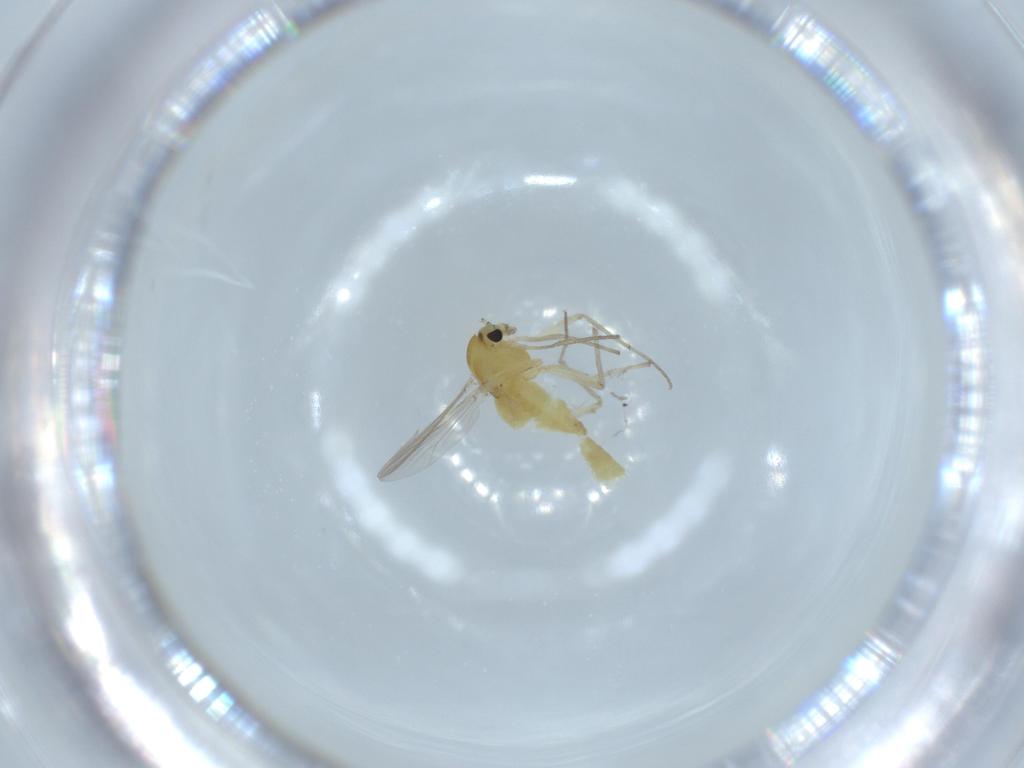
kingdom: Animalia
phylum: Arthropoda
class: Insecta
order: Diptera
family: Chironomidae
